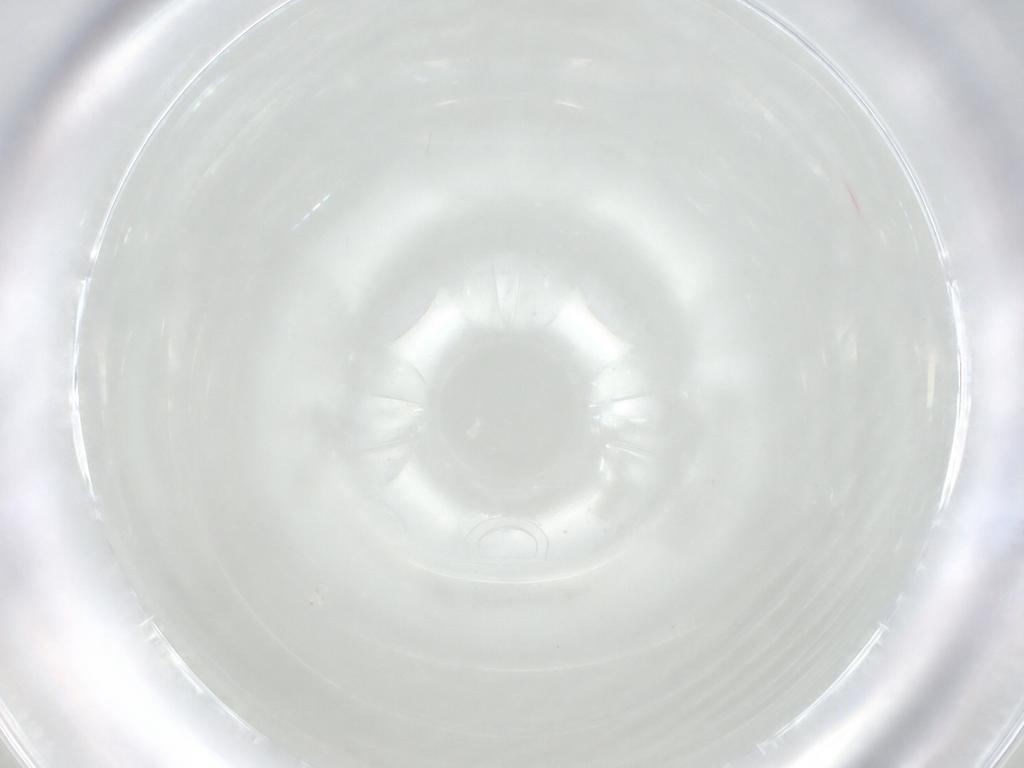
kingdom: Animalia
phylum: Arthropoda
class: Insecta
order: Hymenoptera
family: Trichogrammatidae
